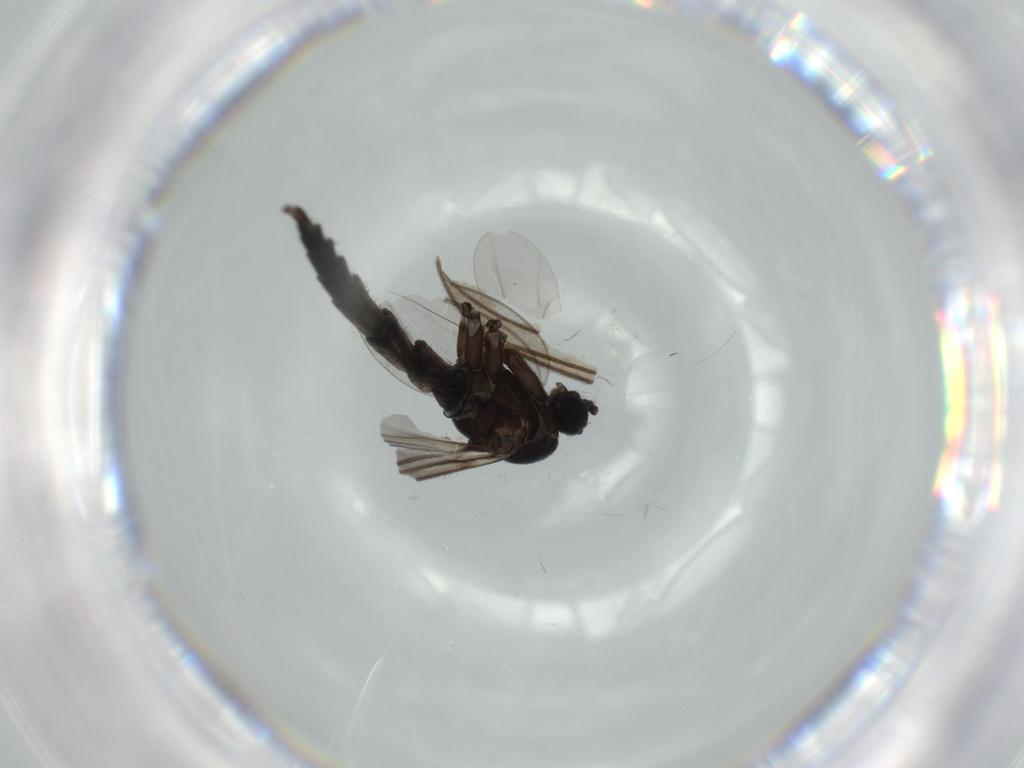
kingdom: Animalia
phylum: Arthropoda
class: Insecta
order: Diptera
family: Sciaridae
